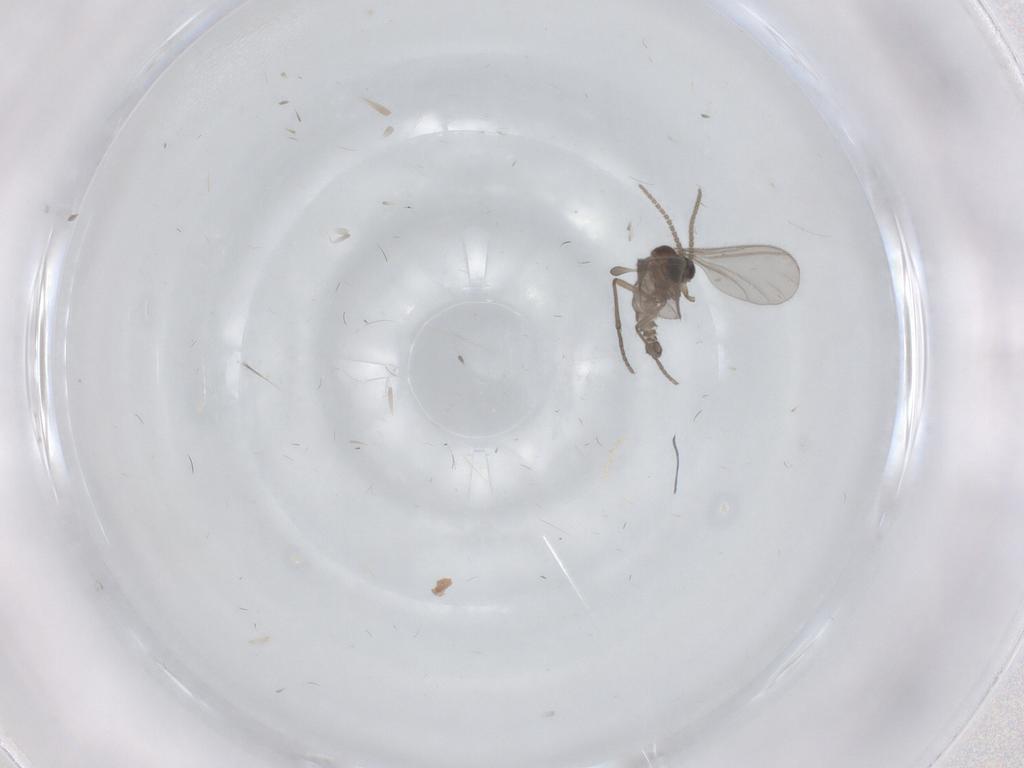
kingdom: Animalia
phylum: Arthropoda
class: Insecta
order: Diptera
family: Sciaridae
